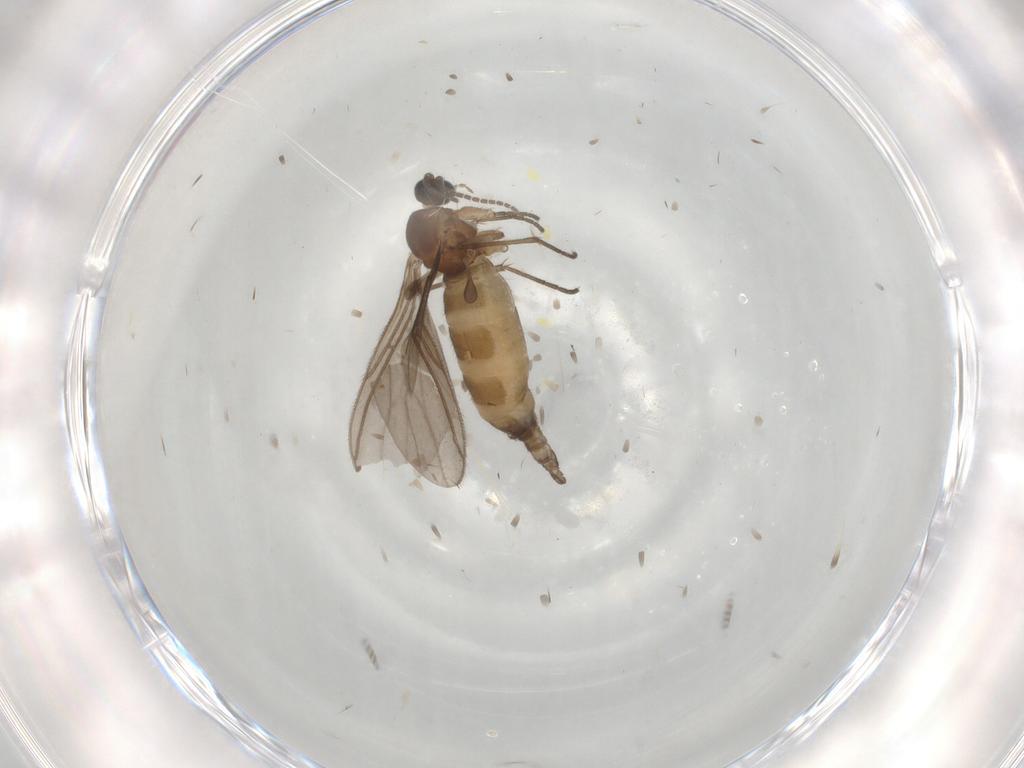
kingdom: Animalia
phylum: Arthropoda
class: Insecta
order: Diptera
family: Sciaridae
